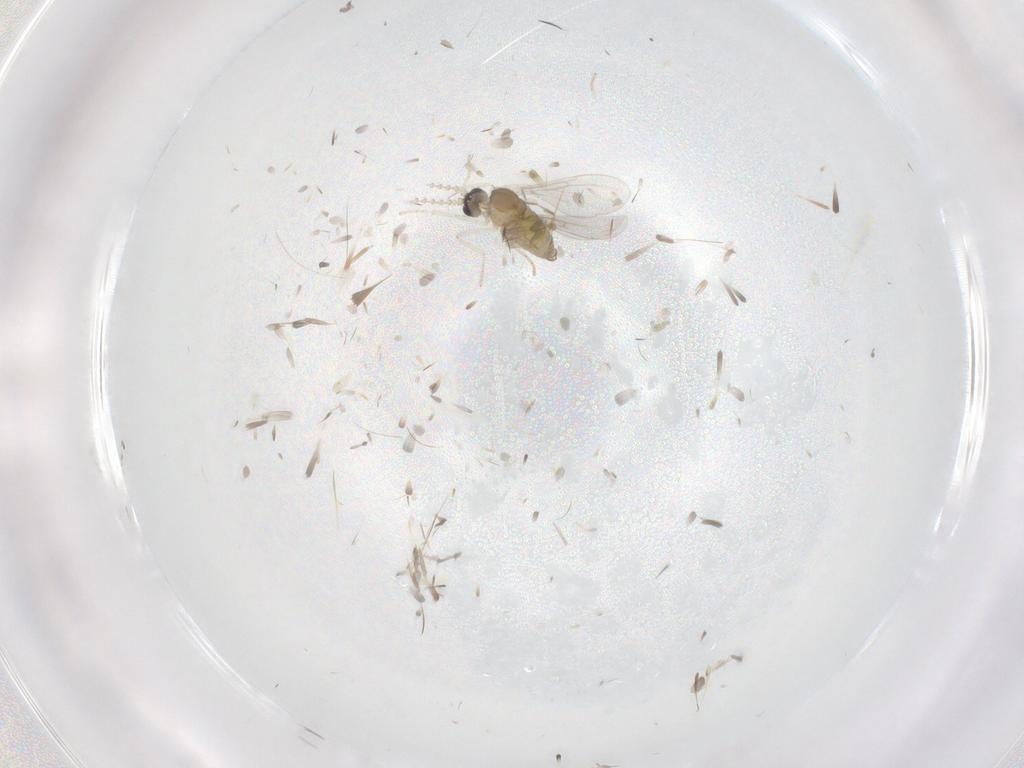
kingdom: Animalia
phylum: Arthropoda
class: Insecta
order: Diptera
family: Cecidomyiidae
